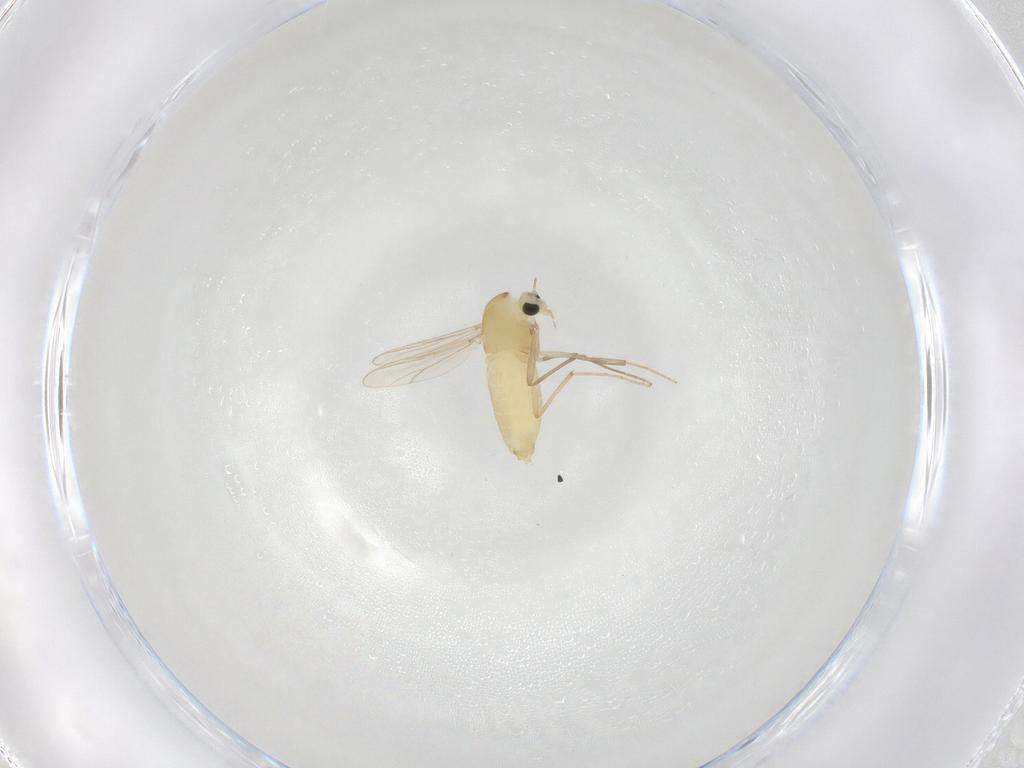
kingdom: Animalia
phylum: Arthropoda
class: Insecta
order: Diptera
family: Chironomidae
